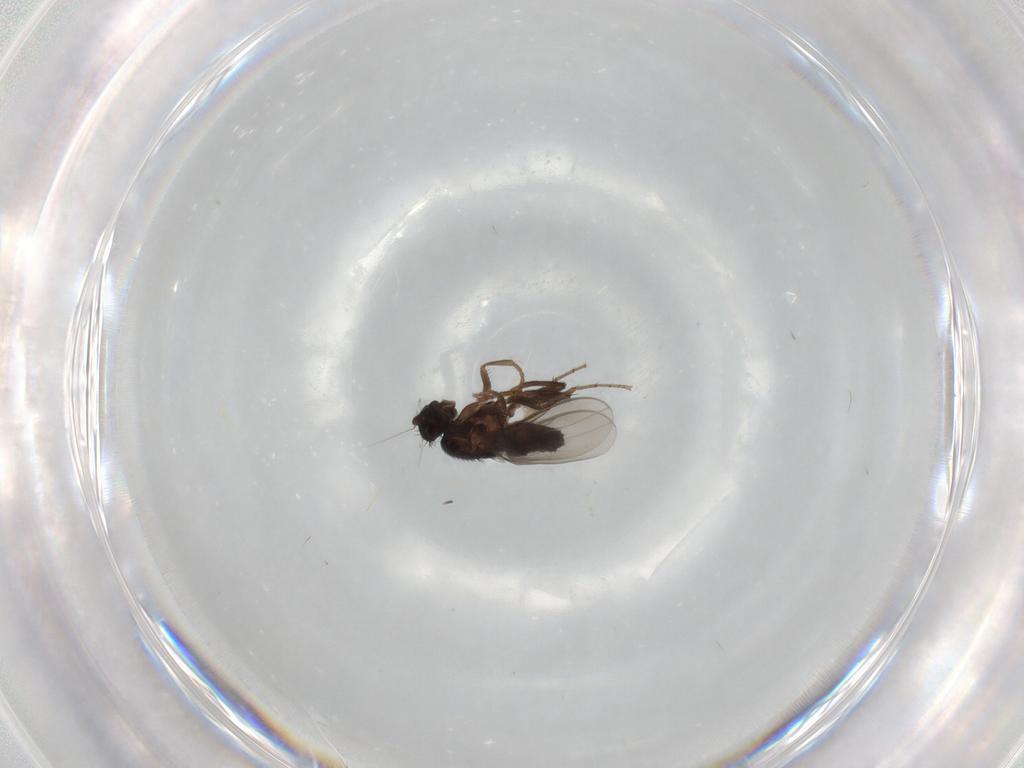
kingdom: Animalia
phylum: Arthropoda
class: Insecta
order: Diptera
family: Sphaeroceridae
